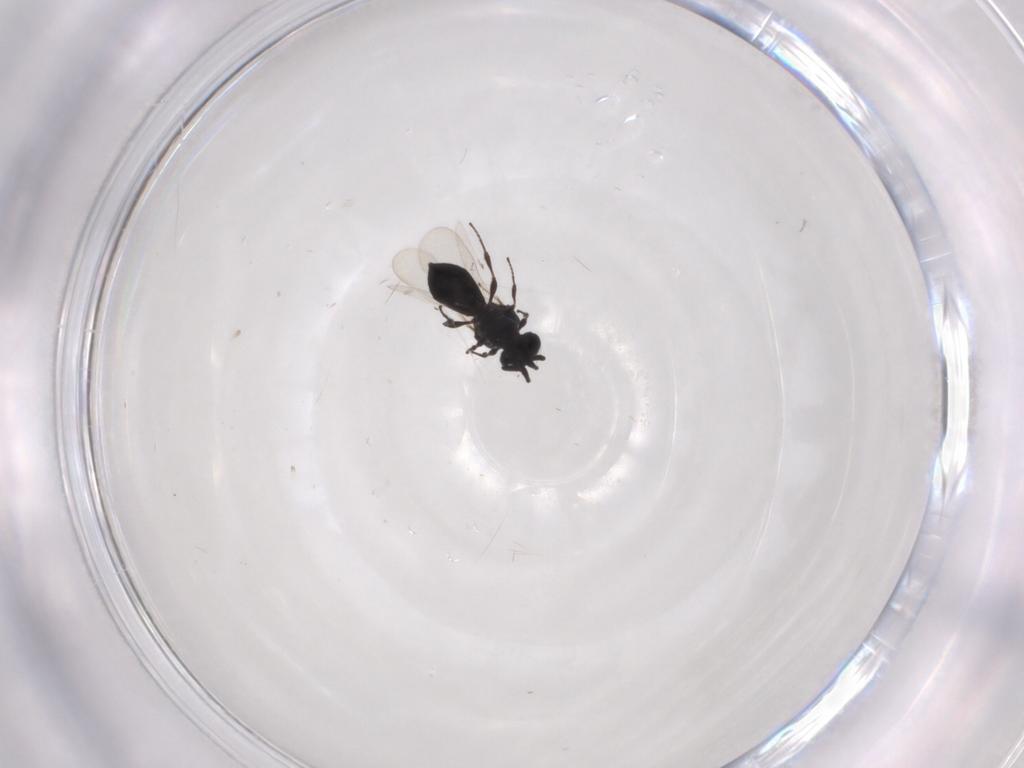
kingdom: Animalia
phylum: Arthropoda
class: Insecta
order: Hymenoptera
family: Platygastridae
